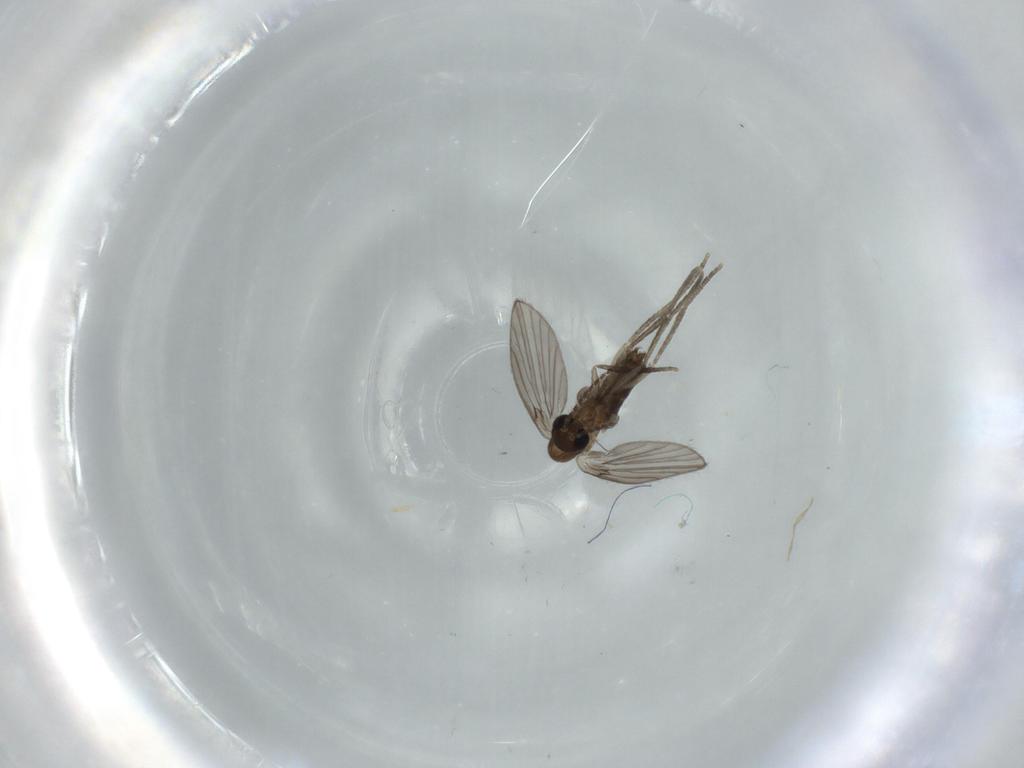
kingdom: Animalia
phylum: Arthropoda
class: Insecta
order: Diptera
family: Psychodidae
